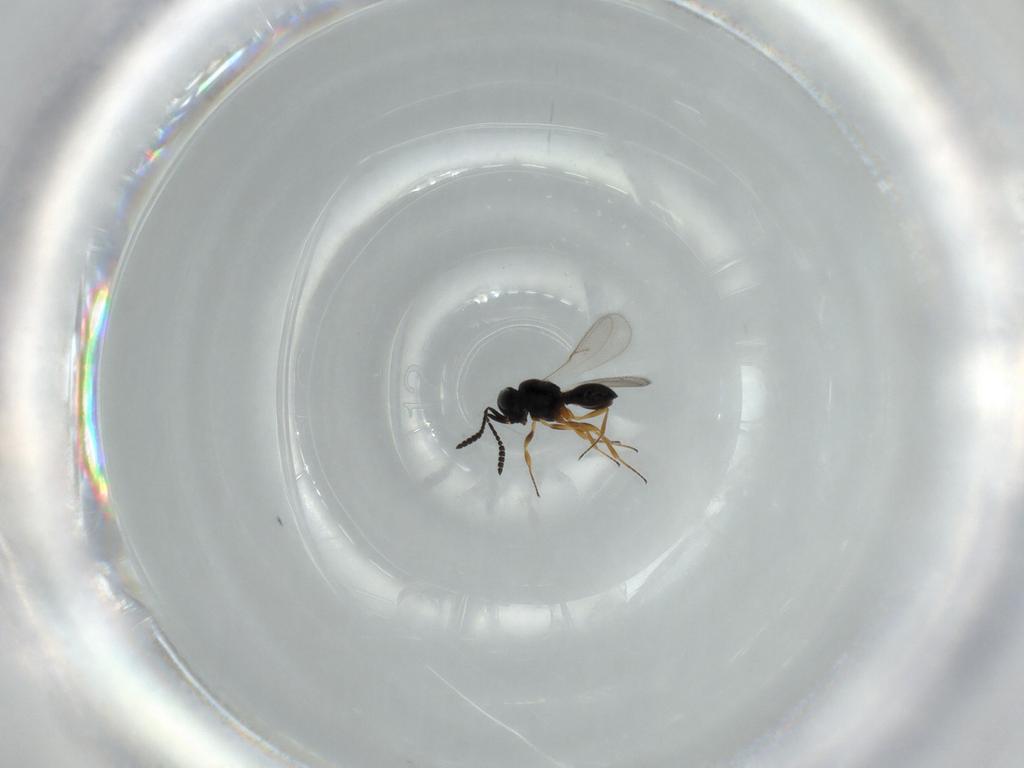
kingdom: Animalia
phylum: Arthropoda
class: Insecta
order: Hymenoptera
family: Scelionidae
